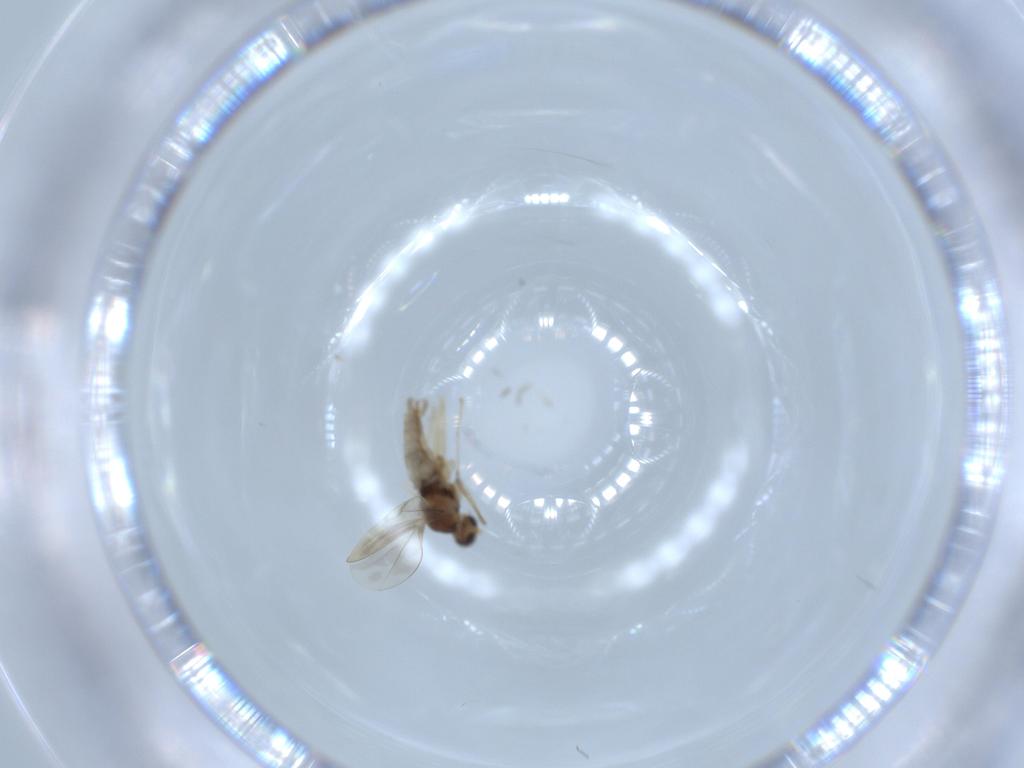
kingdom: Animalia
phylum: Arthropoda
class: Insecta
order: Diptera
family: Cecidomyiidae
